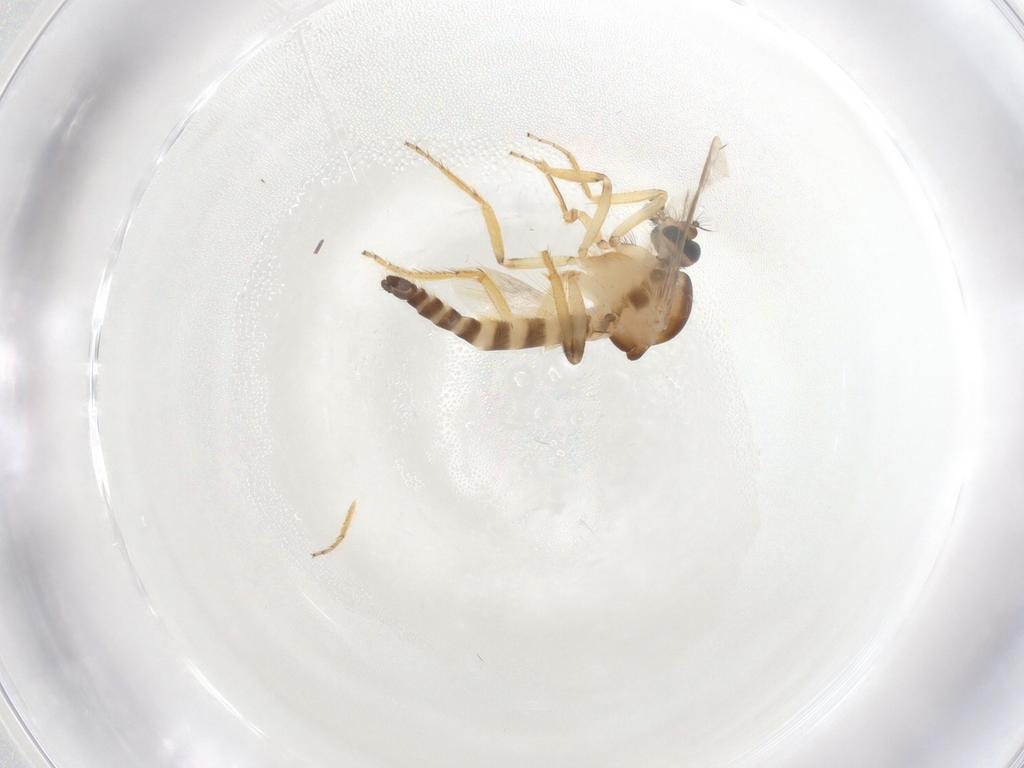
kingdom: Animalia
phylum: Arthropoda
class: Insecta
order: Diptera
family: Ceratopogonidae
